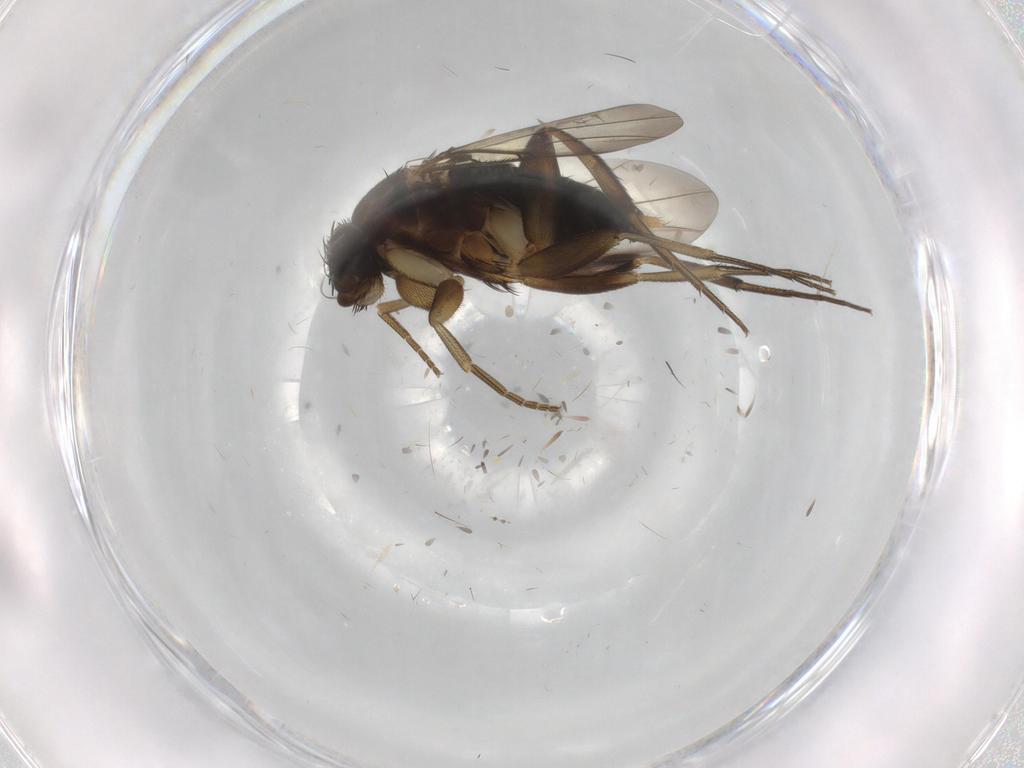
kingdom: Animalia
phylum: Arthropoda
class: Insecta
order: Diptera
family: Phoridae
